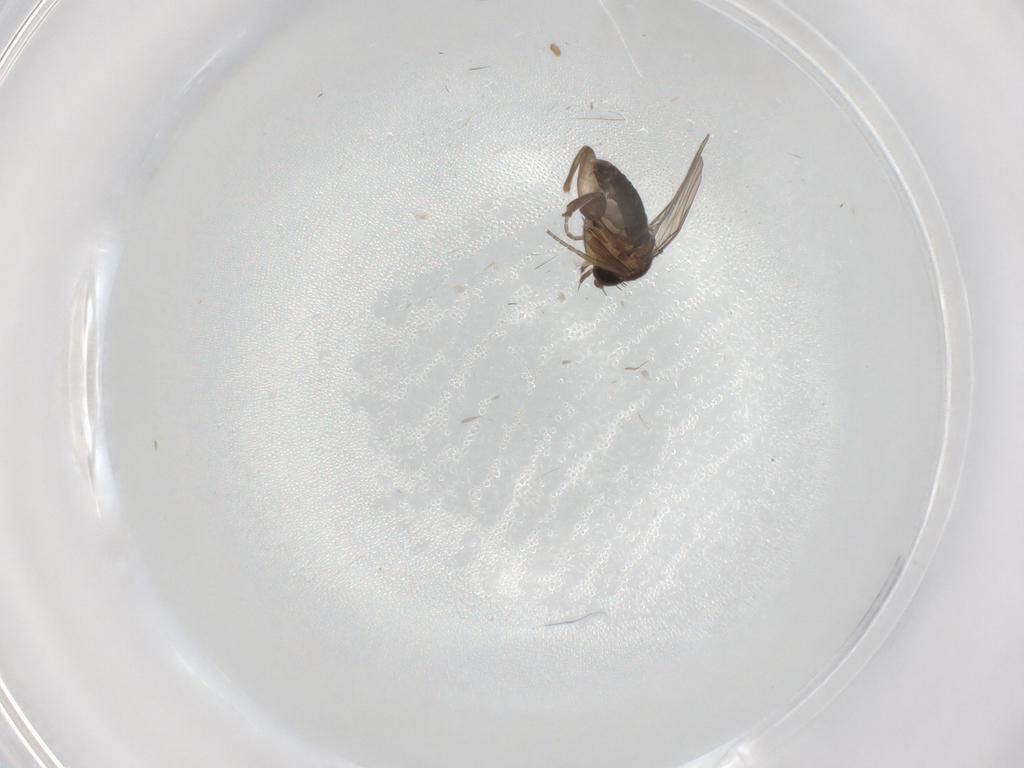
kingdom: Animalia
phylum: Arthropoda
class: Insecta
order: Diptera
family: Phoridae
